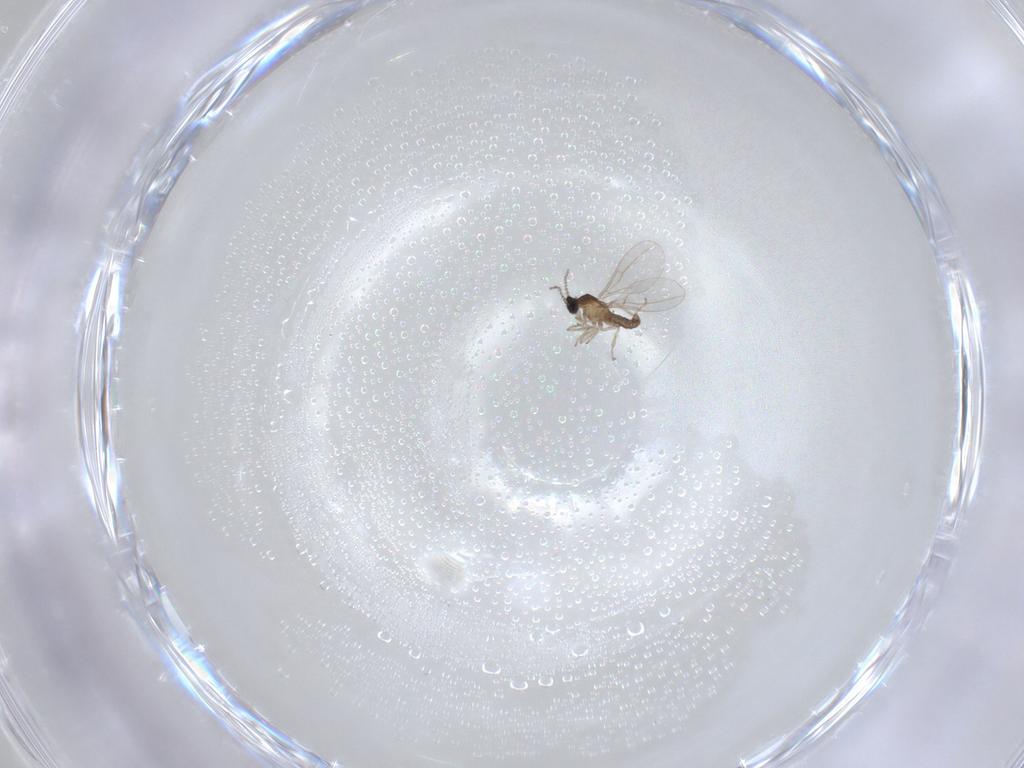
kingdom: Animalia
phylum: Arthropoda
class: Insecta
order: Diptera
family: Cecidomyiidae
